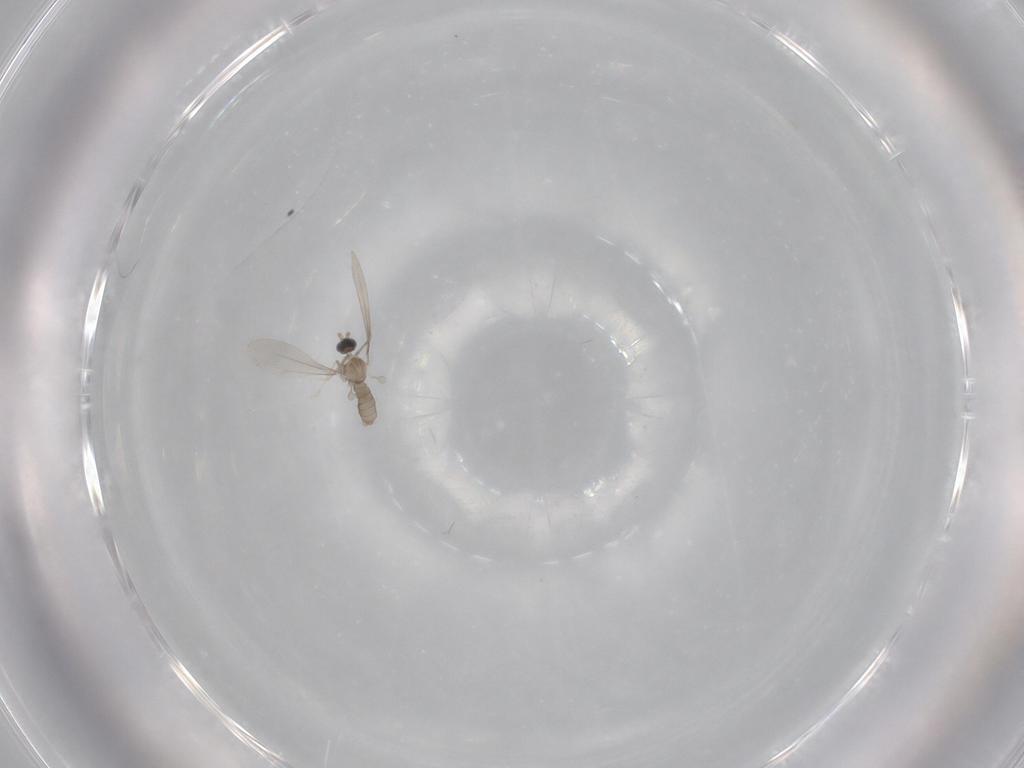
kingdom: Animalia
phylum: Arthropoda
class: Insecta
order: Diptera
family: Cecidomyiidae
